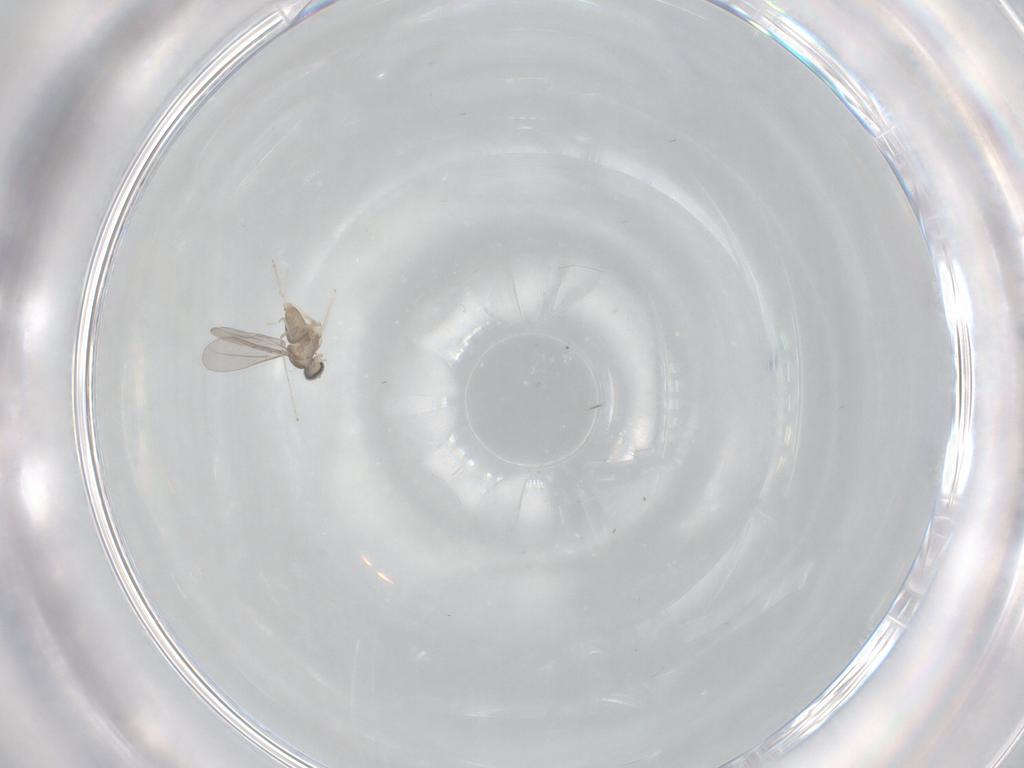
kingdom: Animalia
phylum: Arthropoda
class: Insecta
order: Diptera
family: Chironomidae
